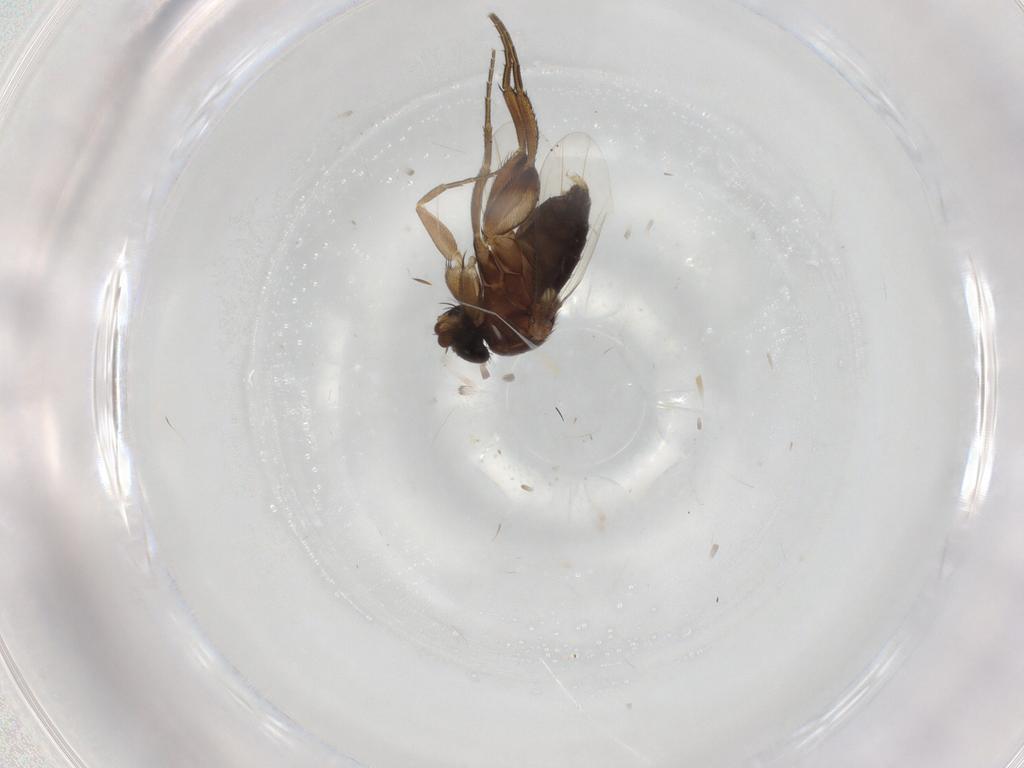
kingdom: Animalia
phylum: Arthropoda
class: Insecta
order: Diptera
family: Phoridae
